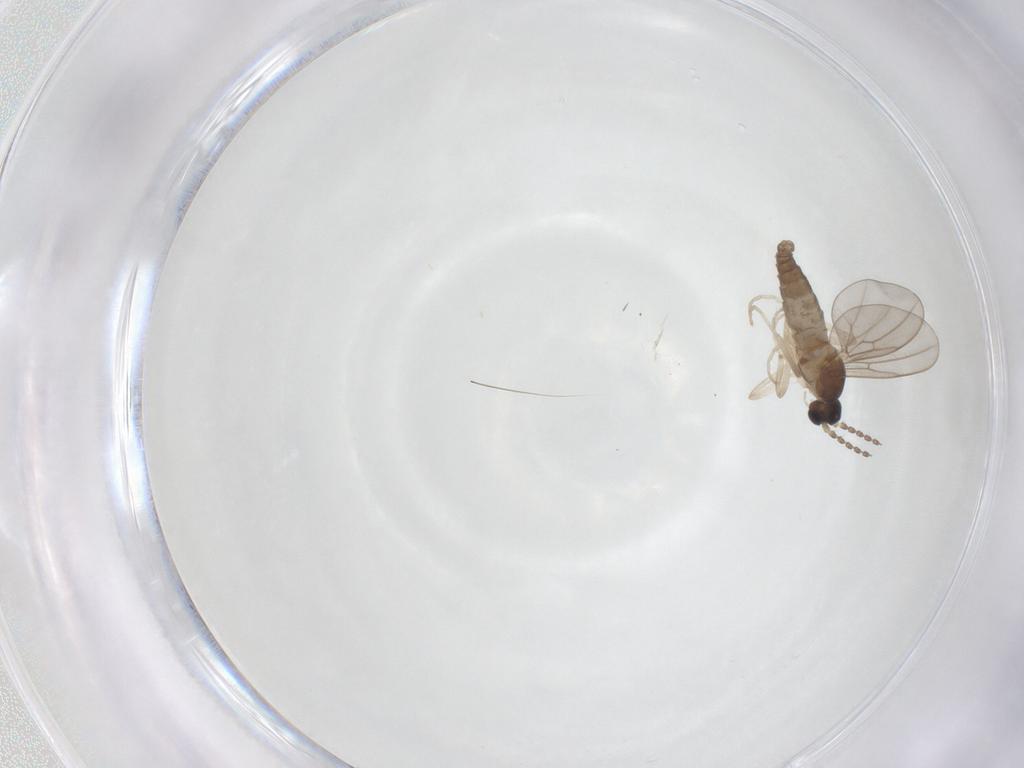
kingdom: Animalia
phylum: Arthropoda
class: Insecta
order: Diptera
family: Cecidomyiidae
